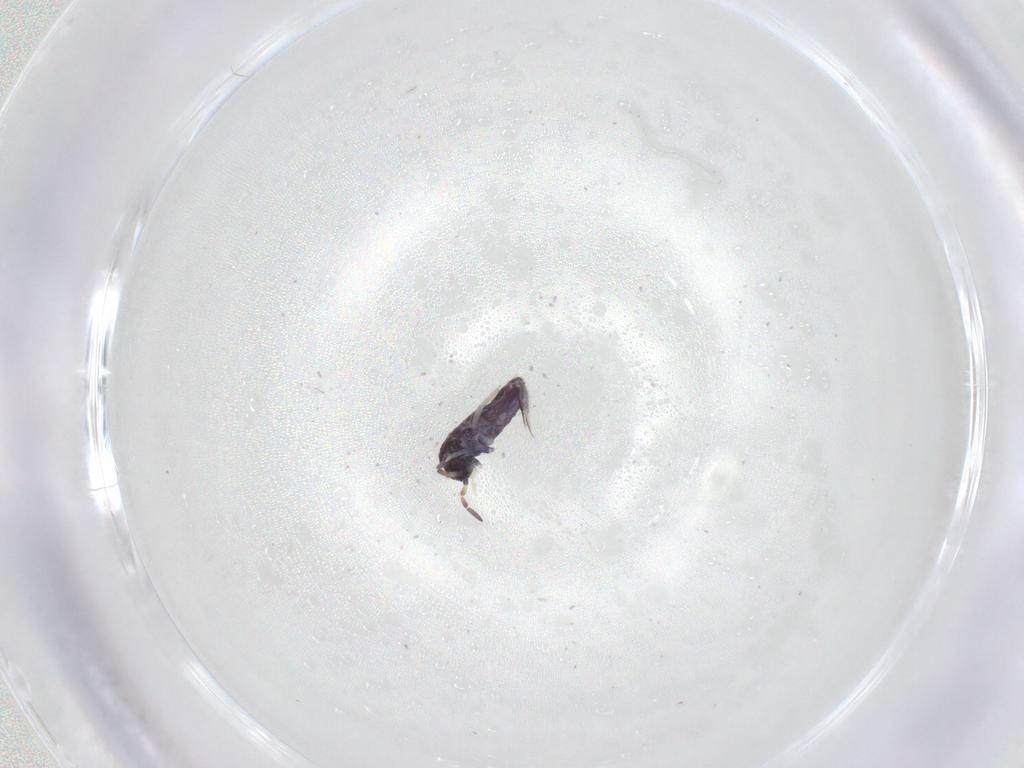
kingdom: Animalia
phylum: Arthropoda
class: Collembola
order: Entomobryomorpha
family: Entomobryidae
